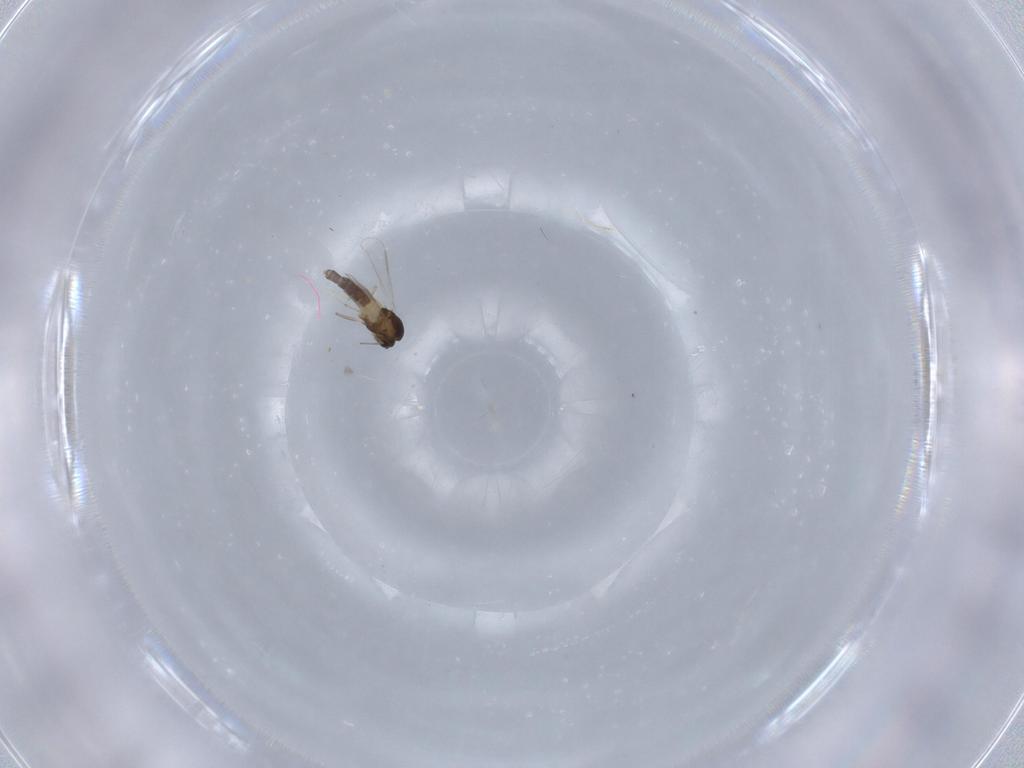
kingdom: Animalia
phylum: Arthropoda
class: Insecta
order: Diptera
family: Chironomidae
